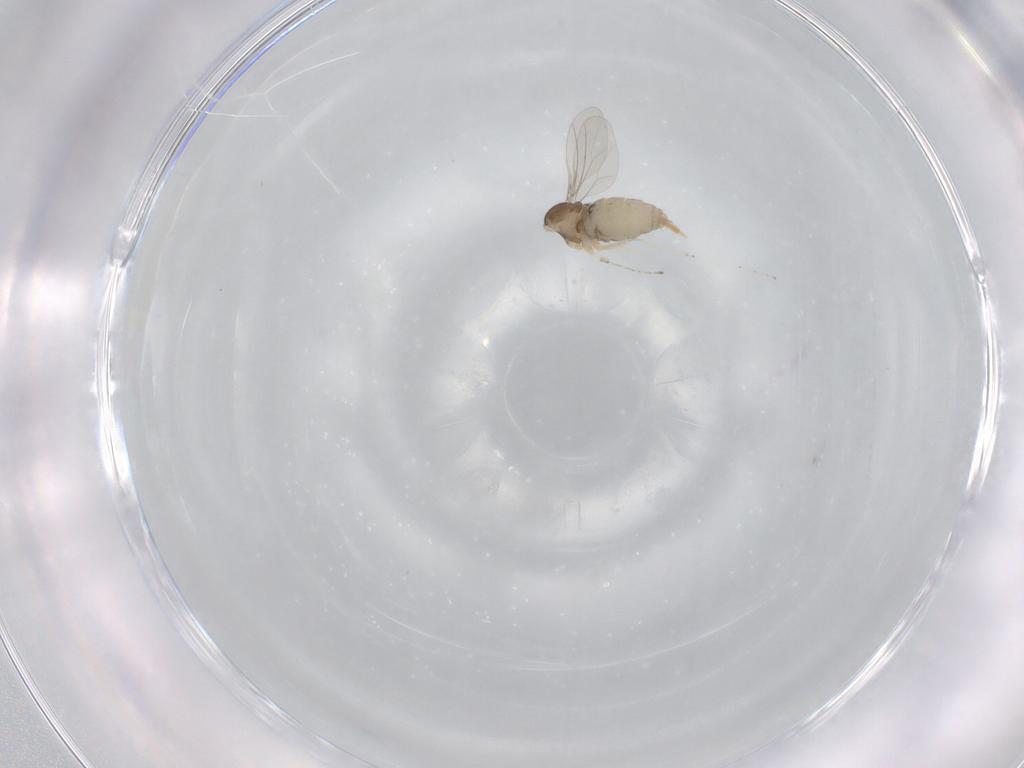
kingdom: Animalia
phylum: Arthropoda
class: Insecta
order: Diptera
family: Cecidomyiidae
